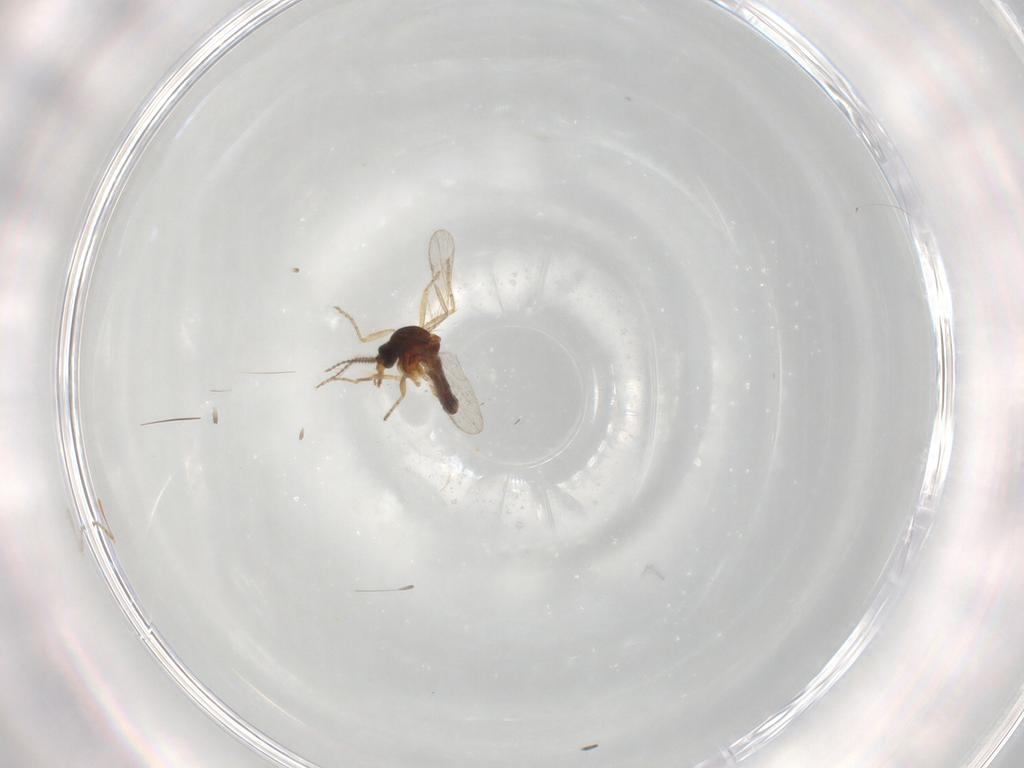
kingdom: Animalia
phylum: Arthropoda
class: Insecta
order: Diptera
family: Ceratopogonidae
